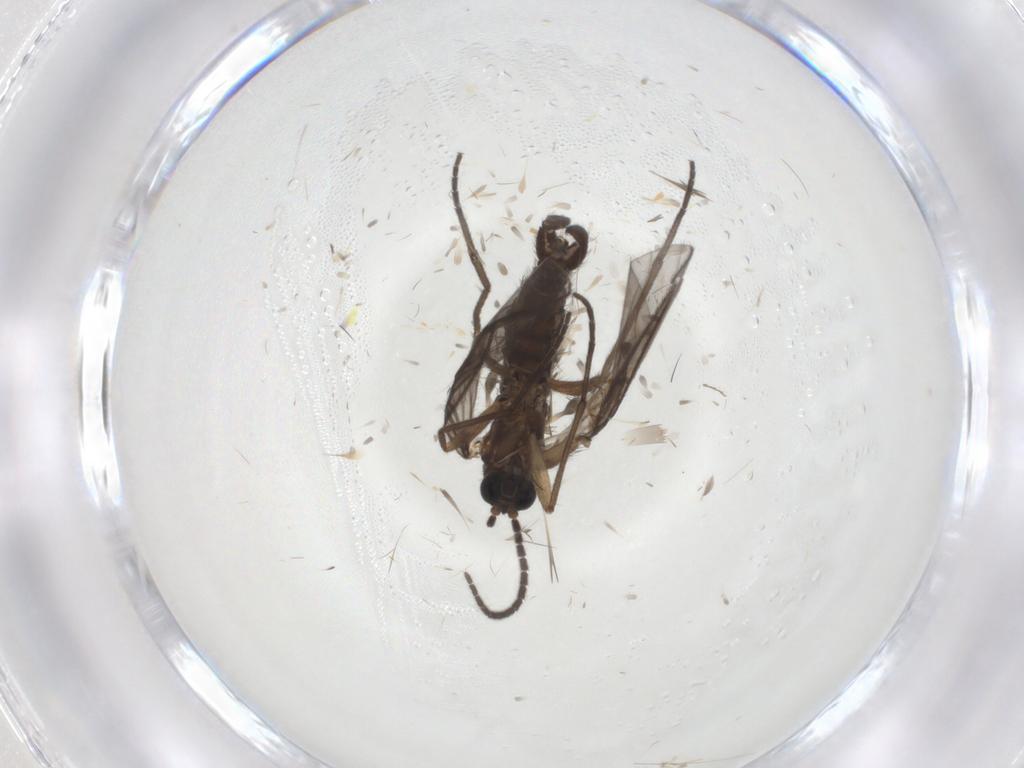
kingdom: Animalia
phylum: Arthropoda
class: Insecta
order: Diptera
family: Sciaridae
